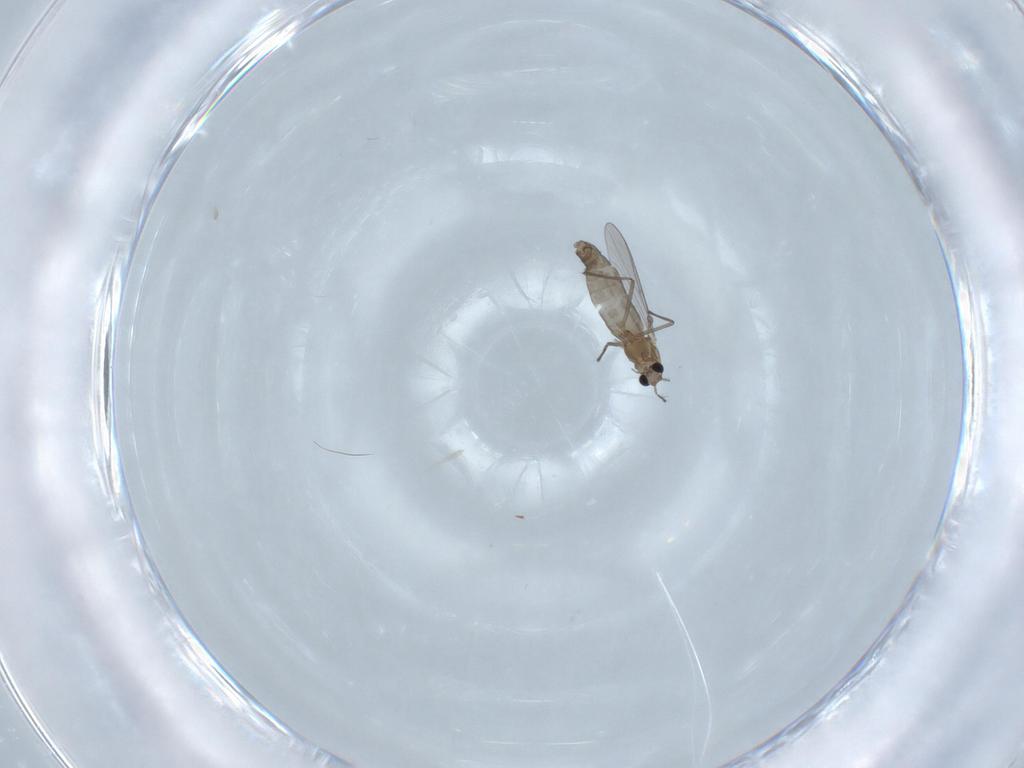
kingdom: Animalia
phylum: Arthropoda
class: Insecta
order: Diptera
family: Chironomidae
